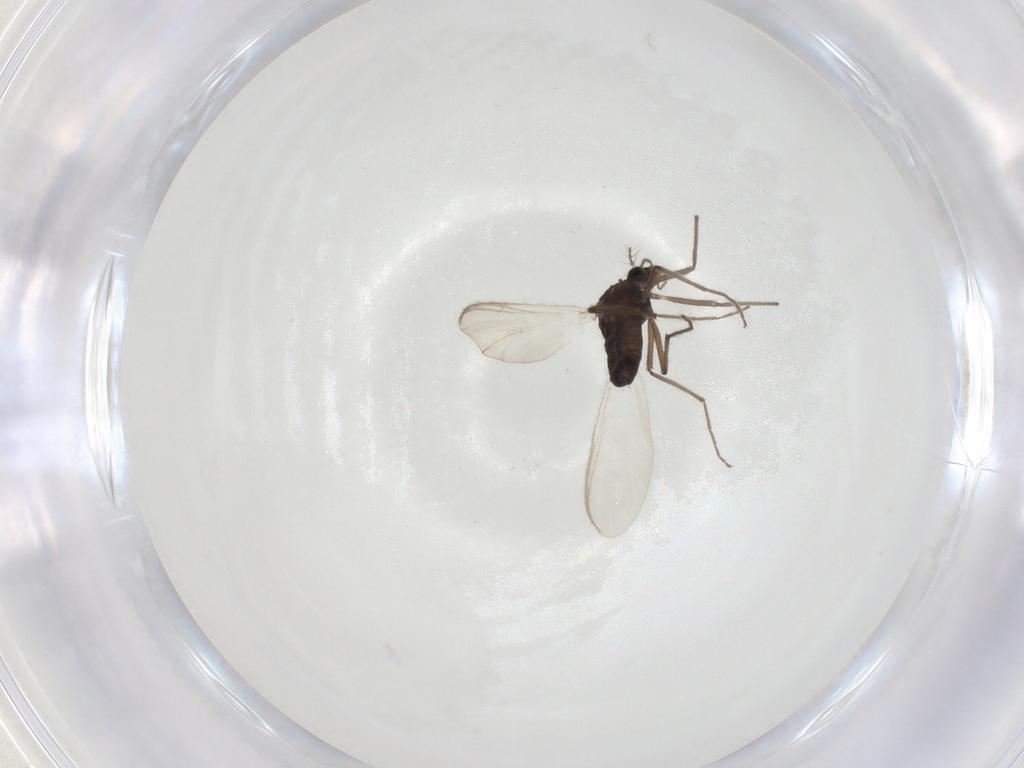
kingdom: Animalia
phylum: Arthropoda
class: Insecta
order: Diptera
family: Chironomidae
